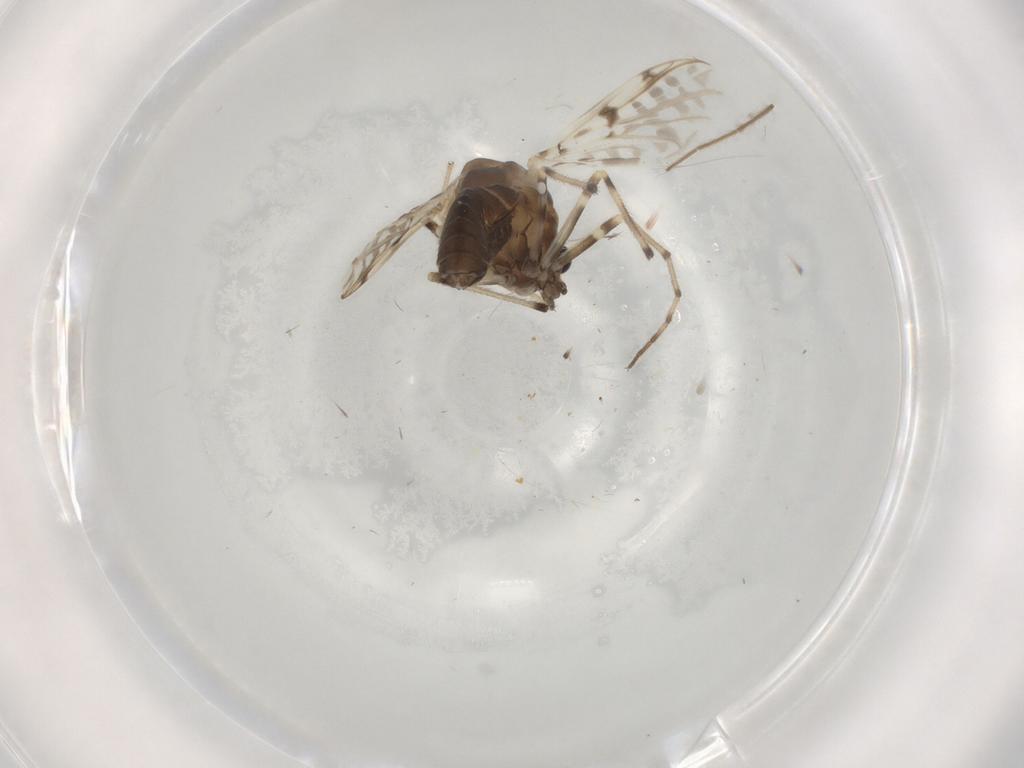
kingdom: Animalia
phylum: Arthropoda
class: Insecta
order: Diptera
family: Chironomidae
